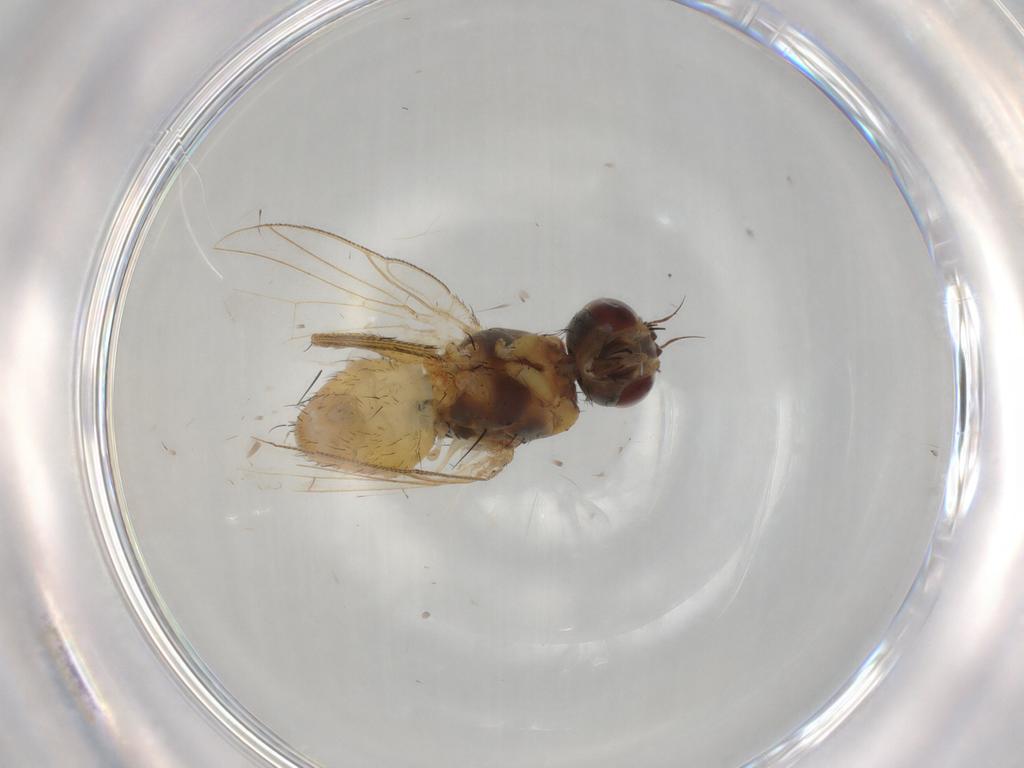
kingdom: Animalia
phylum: Arthropoda
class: Insecta
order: Diptera
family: Muscidae
